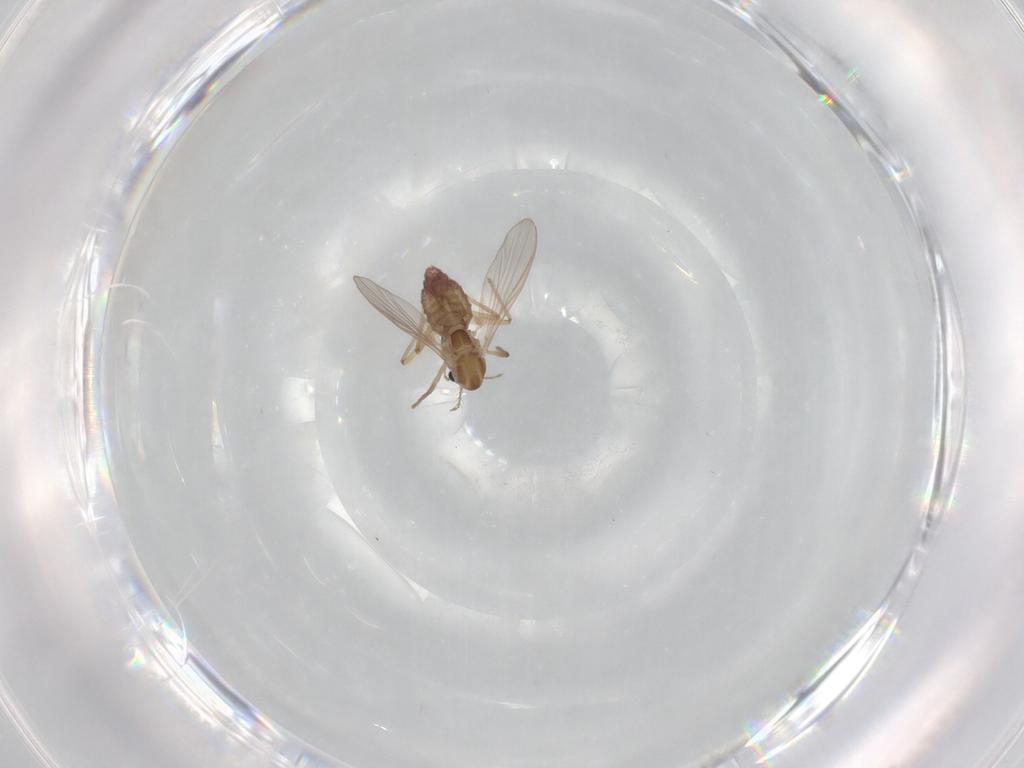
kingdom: Animalia
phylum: Arthropoda
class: Insecta
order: Diptera
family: Chironomidae
